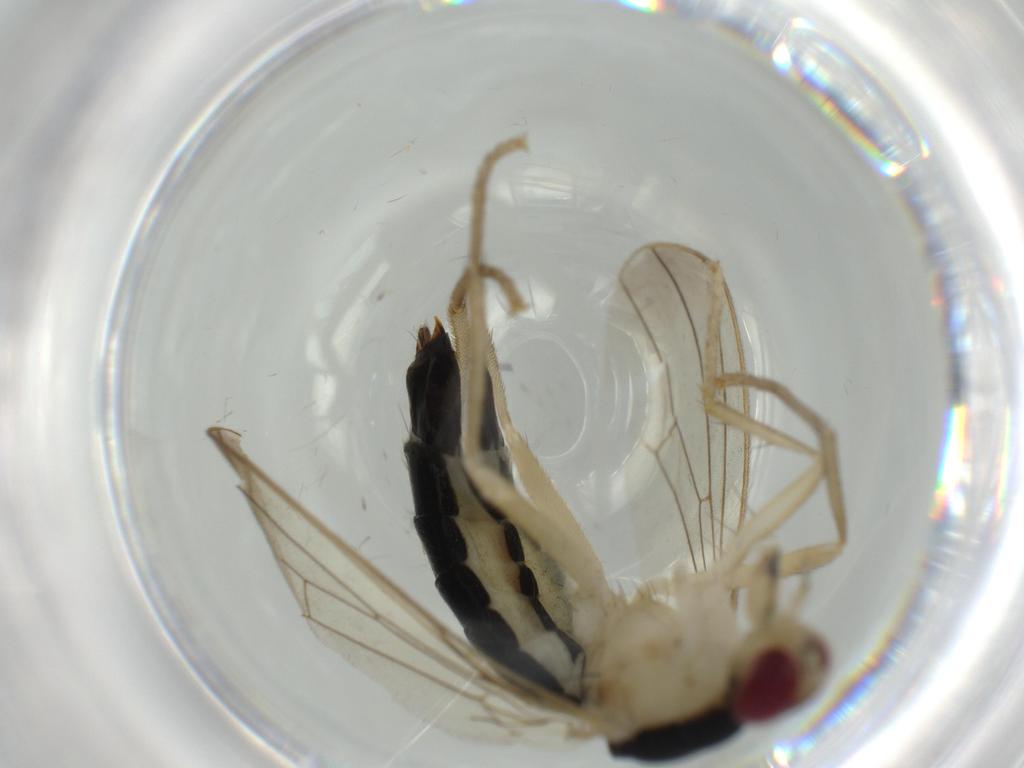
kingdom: Animalia
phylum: Arthropoda
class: Insecta
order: Diptera
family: Scathophagidae
